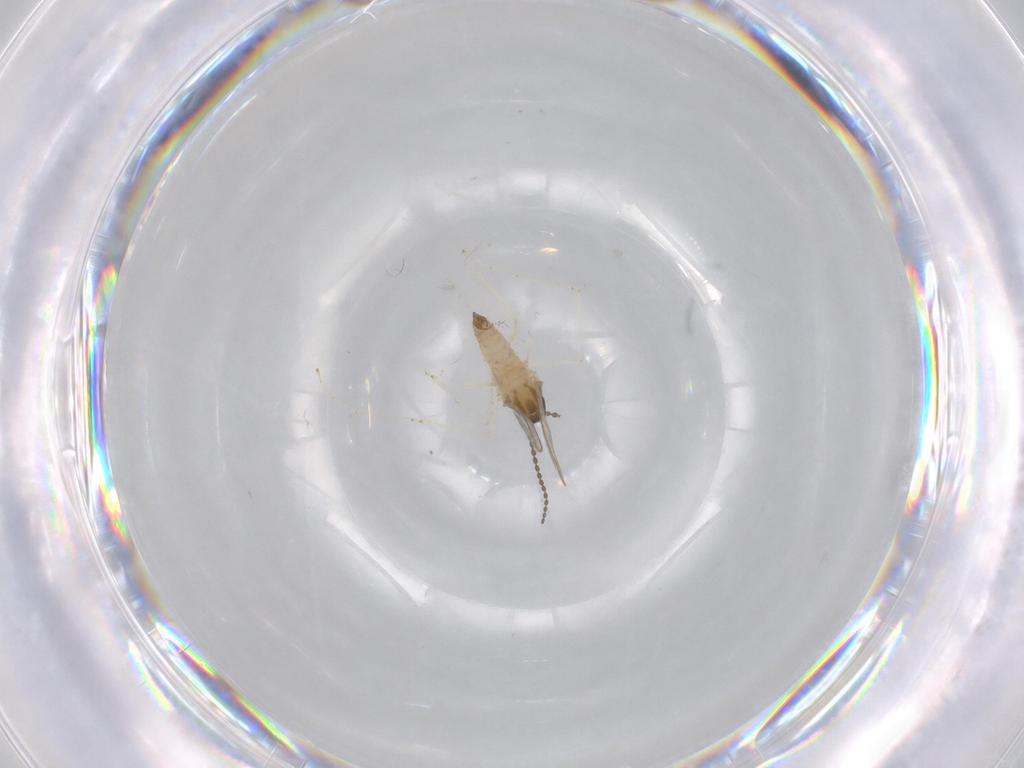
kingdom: Animalia
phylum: Arthropoda
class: Insecta
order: Diptera
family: Cecidomyiidae
